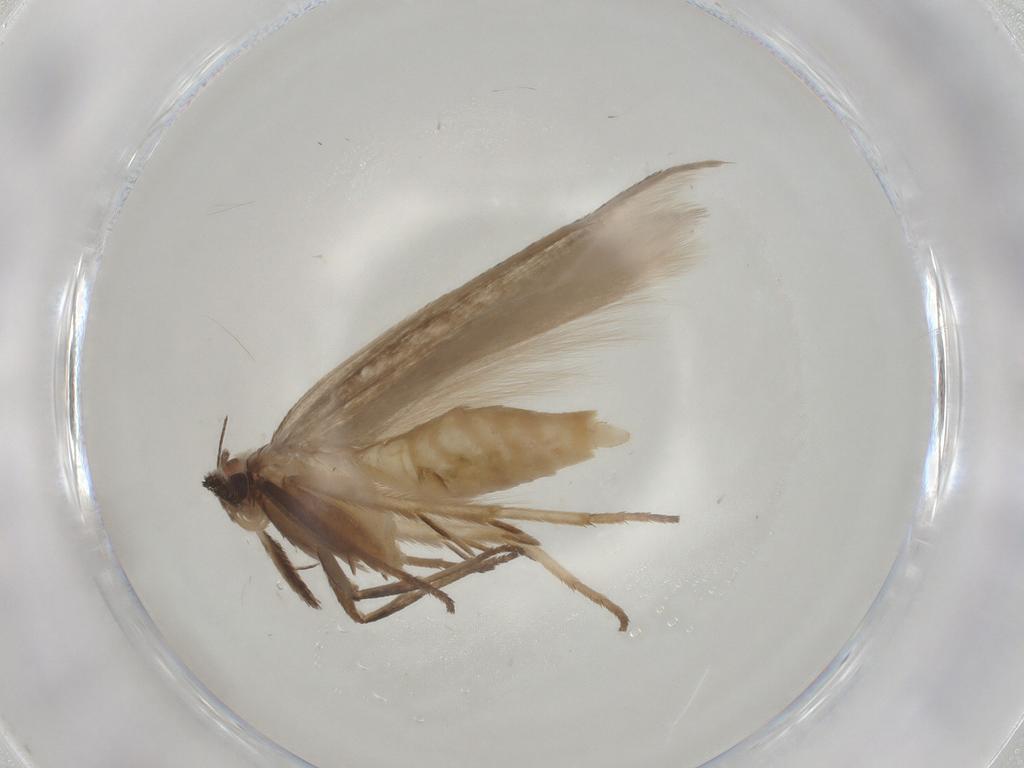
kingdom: Animalia
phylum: Arthropoda
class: Insecta
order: Lepidoptera
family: Gelechiidae
